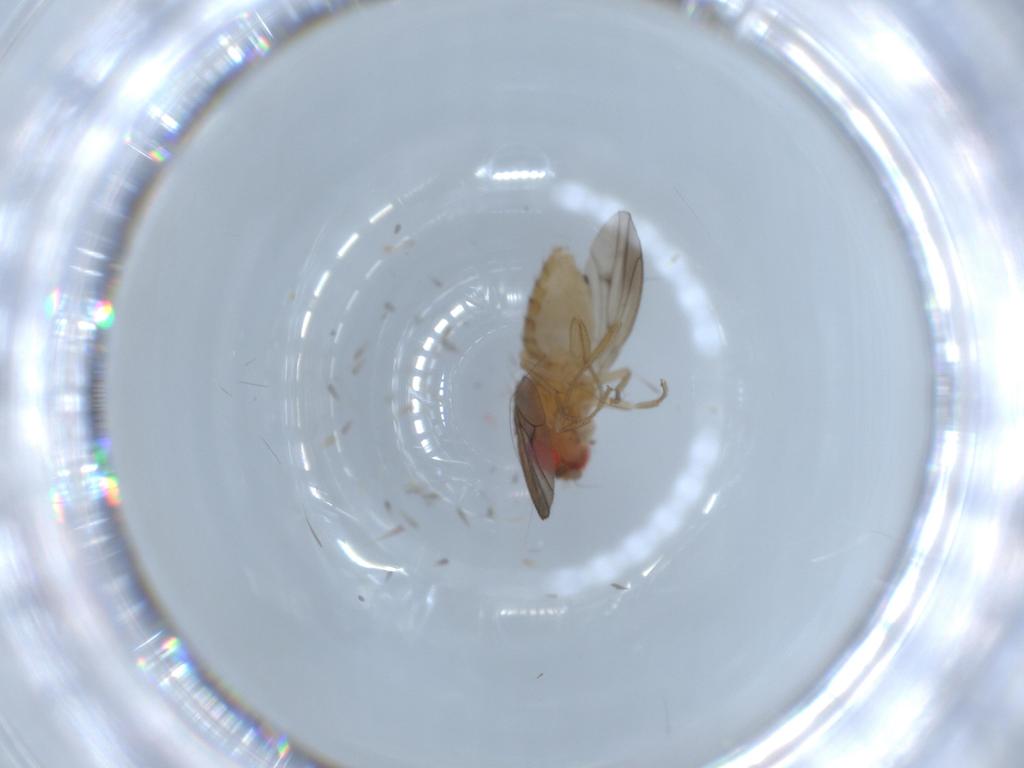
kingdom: Animalia
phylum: Arthropoda
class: Insecta
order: Diptera
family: Drosophilidae
